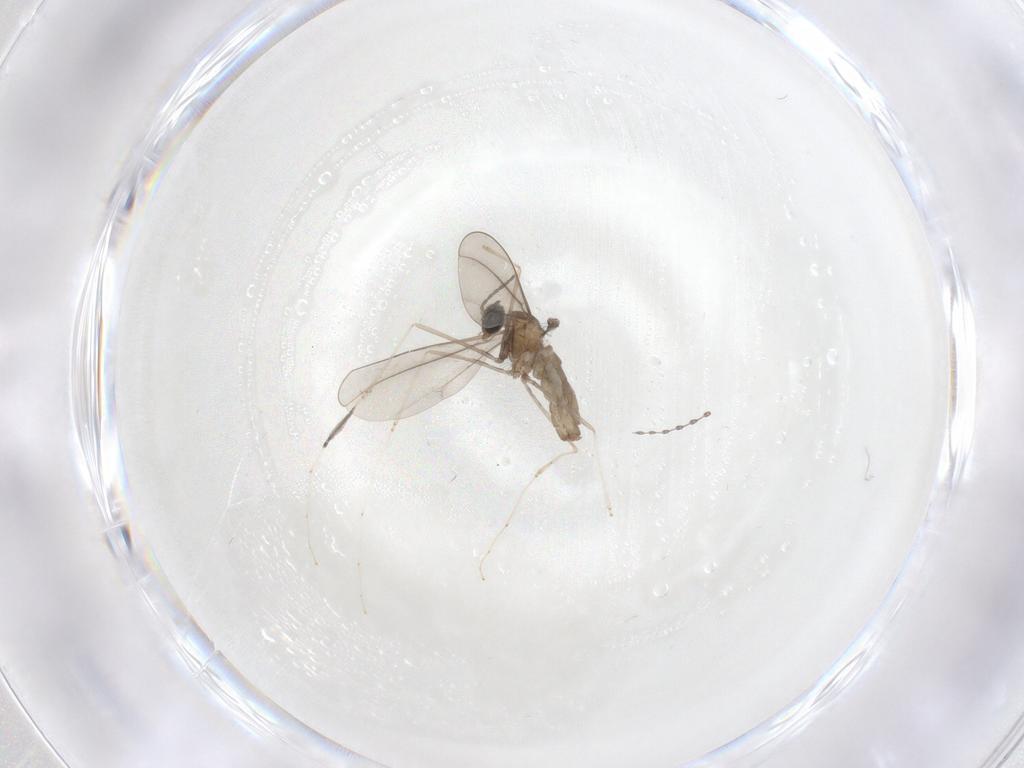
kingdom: Animalia
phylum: Arthropoda
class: Insecta
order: Diptera
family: Cecidomyiidae
